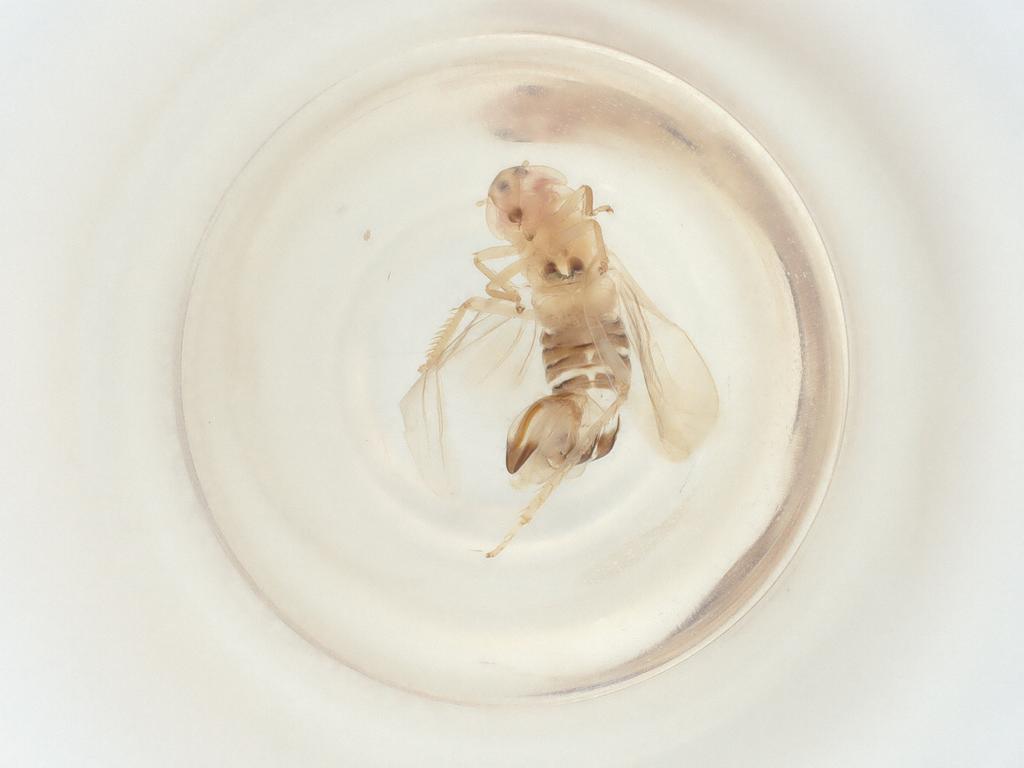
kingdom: Animalia
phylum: Arthropoda
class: Insecta
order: Hemiptera
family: Cicadellidae
